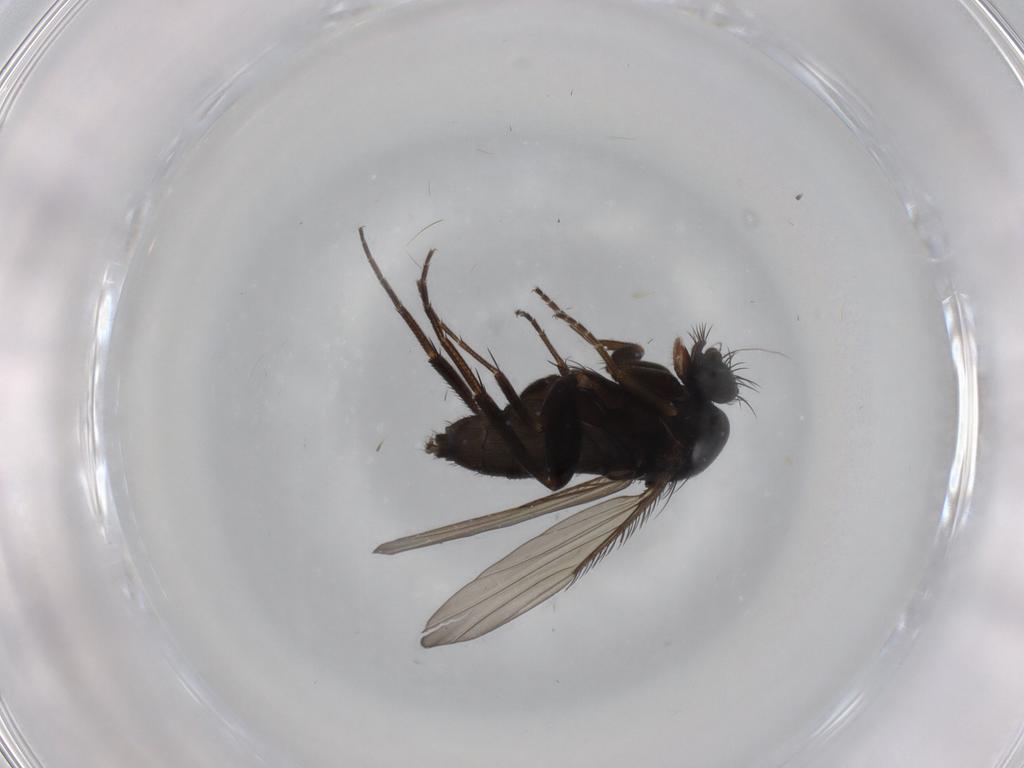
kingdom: Animalia
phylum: Arthropoda
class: Insecta
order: Diptera
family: Phoridae
